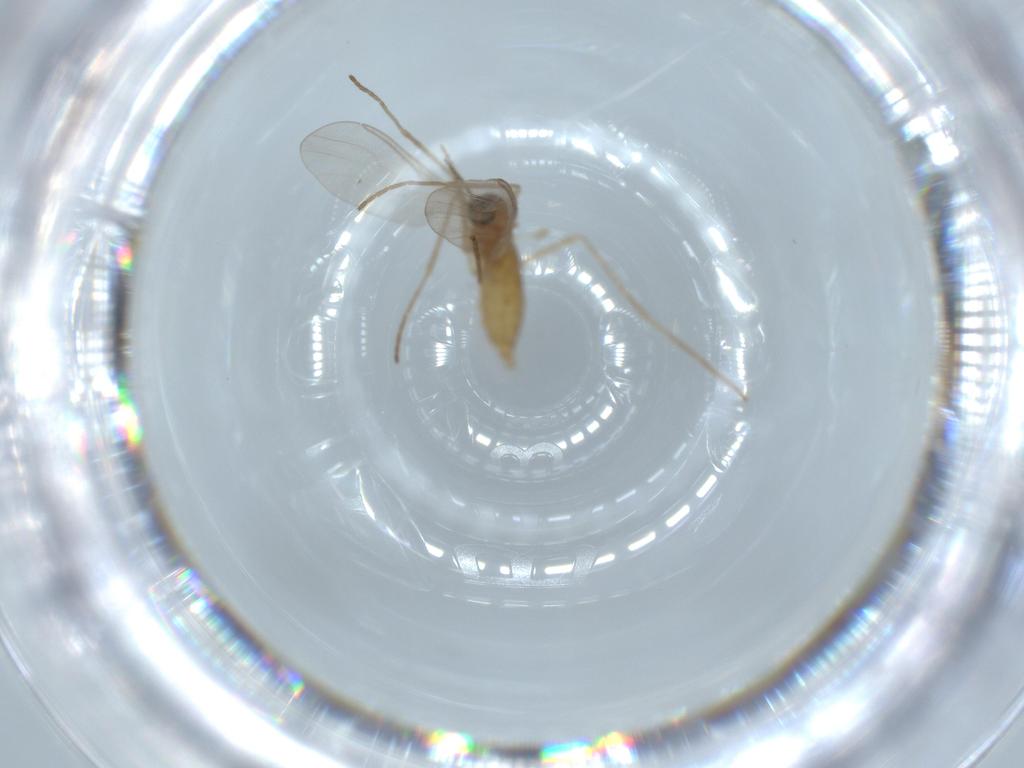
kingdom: Animalia
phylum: Arthropoda
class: Insecta
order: Diptera
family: Cecidomyiidae
